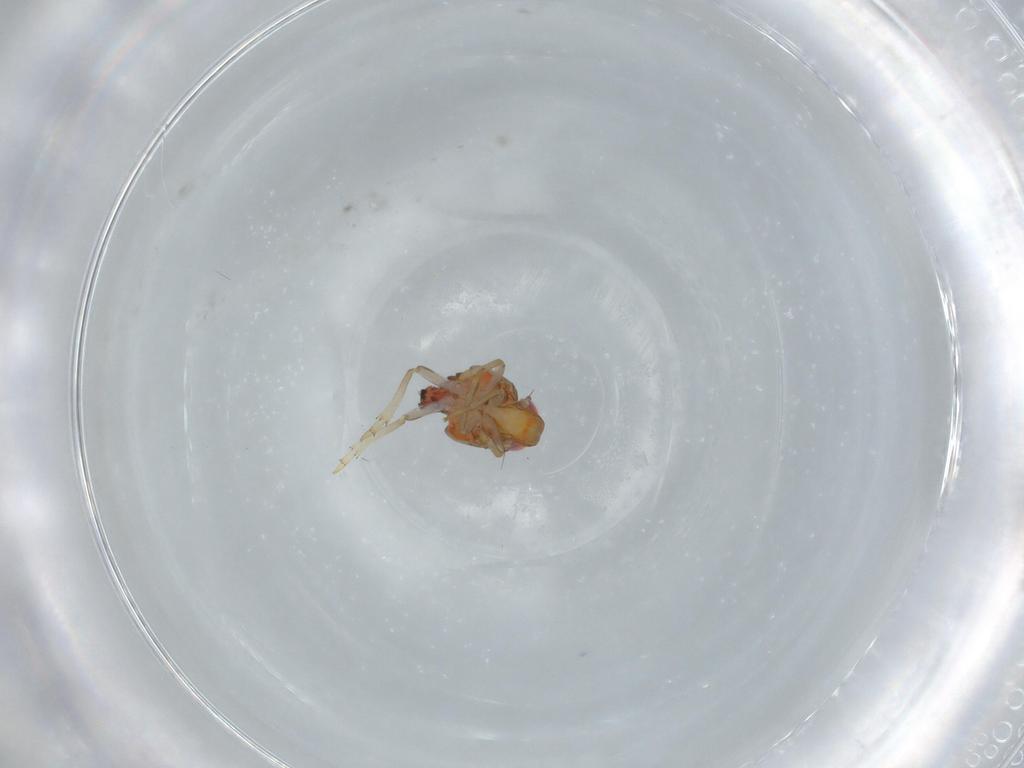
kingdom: Animalia
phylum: Arthropoda
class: Insecta
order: Hemiptera
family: Issidae
